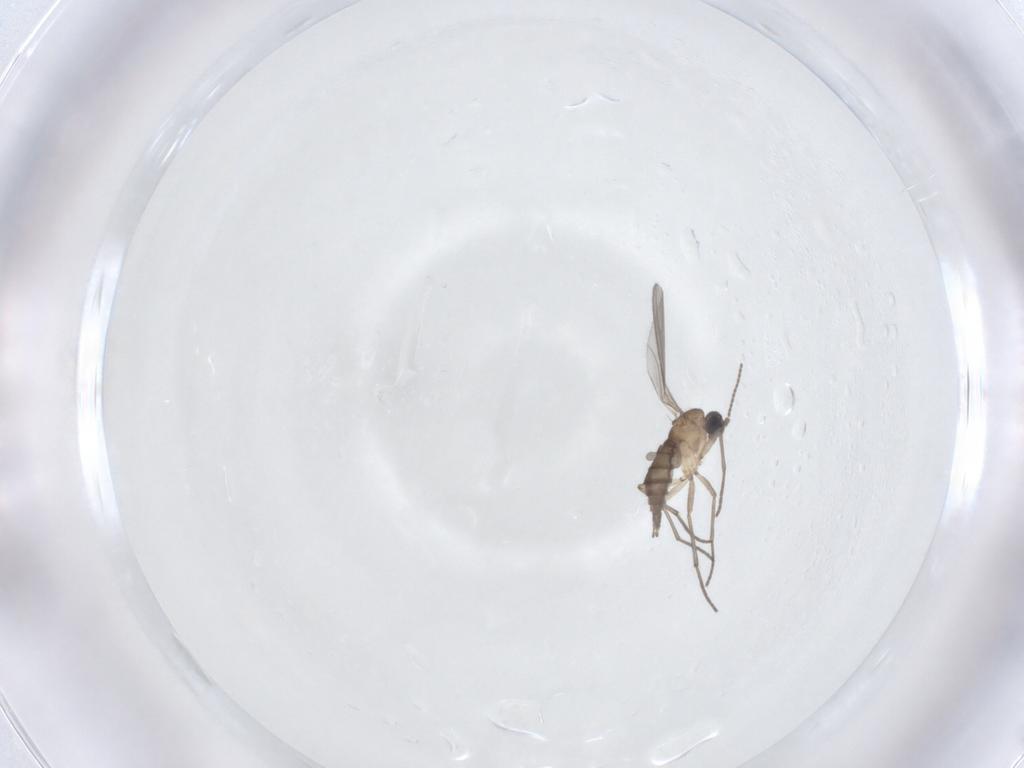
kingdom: Animalia
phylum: Arthropoda
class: Insecta
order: Diptera
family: Sciaridae
